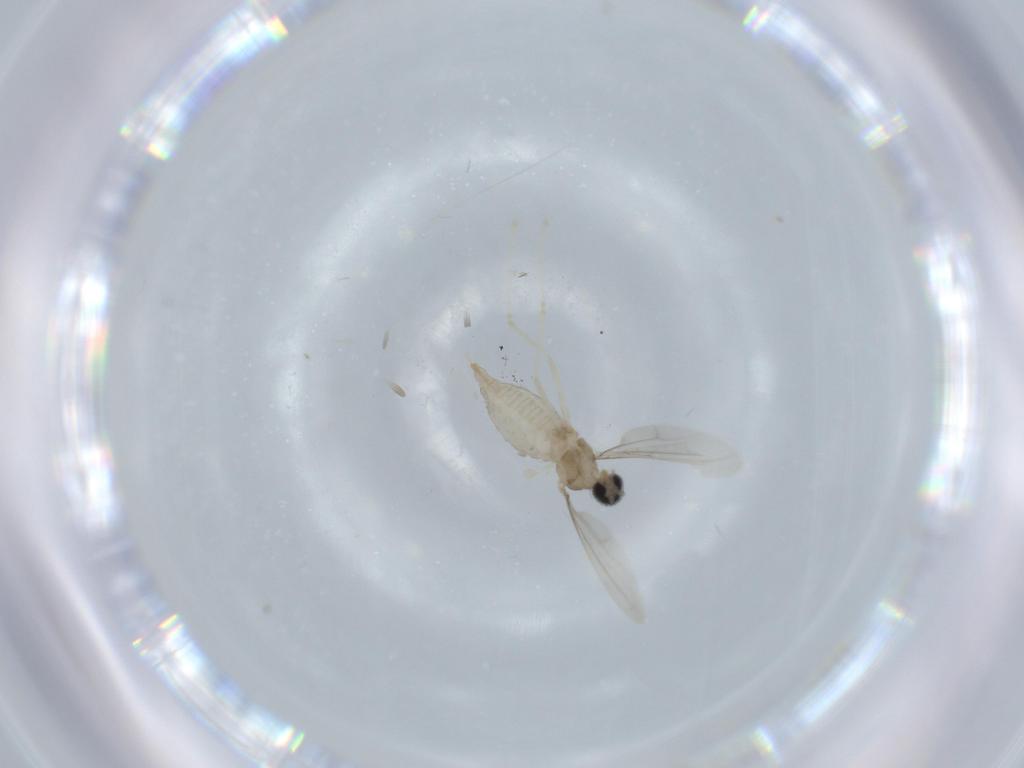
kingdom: Animalia
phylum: Arthropoda
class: Insecta
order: Diptera
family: Cecidomyiidae
